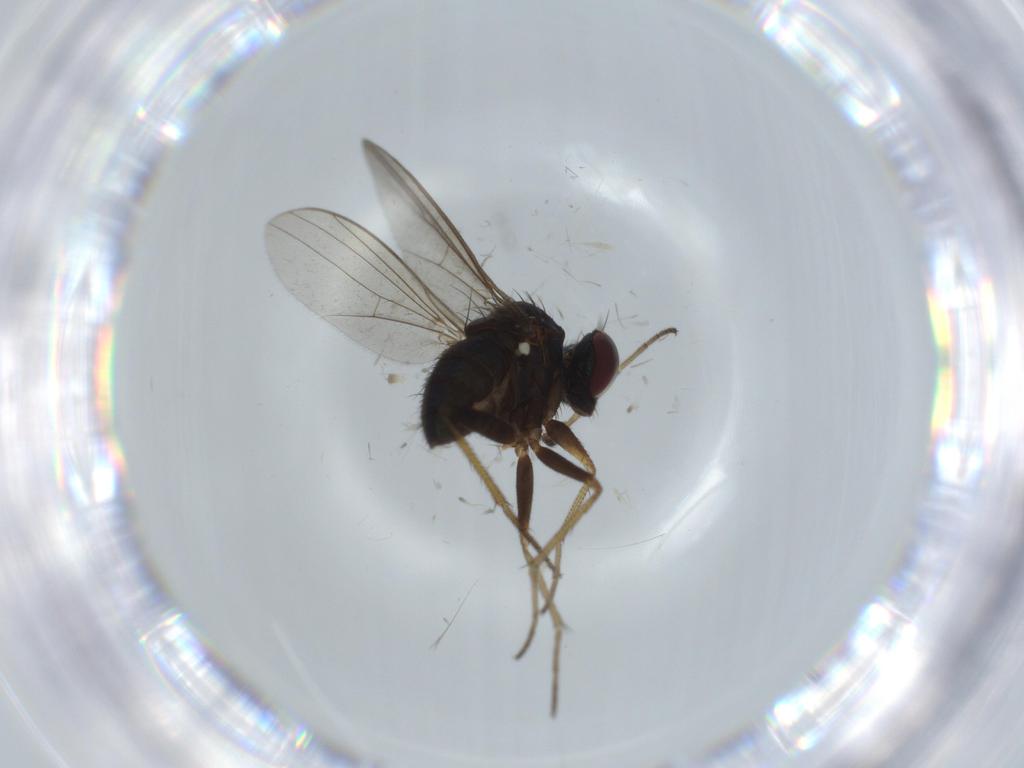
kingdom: Animalia
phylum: Arthropoda
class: Insecta
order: Diptera
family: Dolichopodidae
